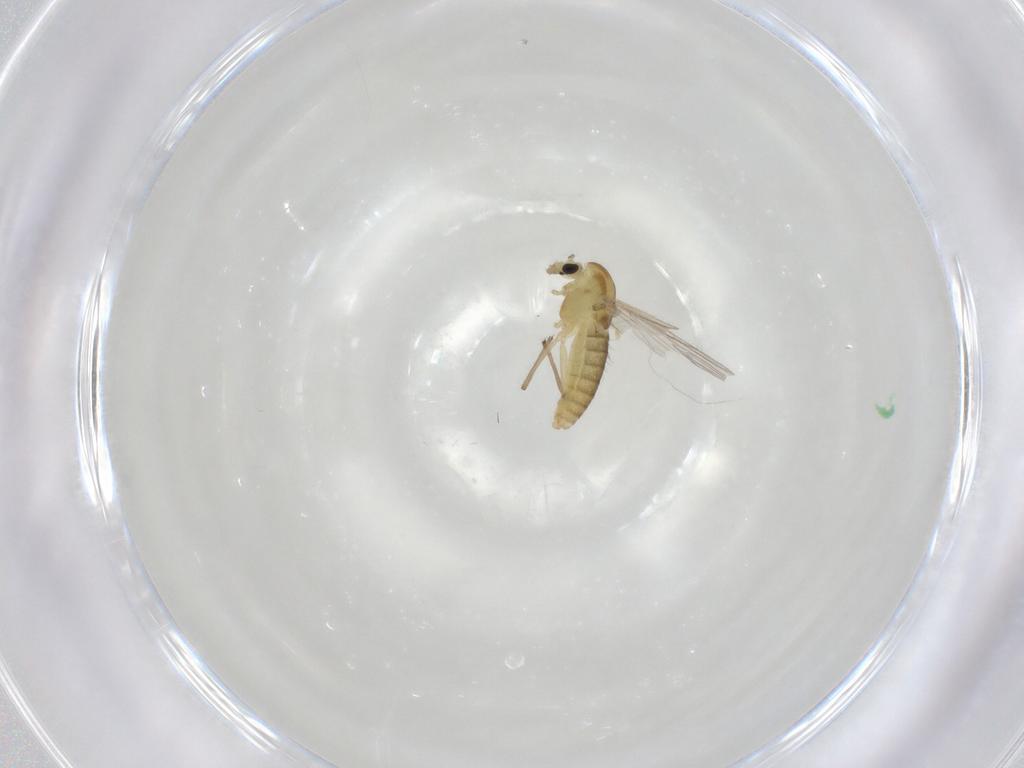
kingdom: Animalia
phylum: Arthropoda
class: Insecta
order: Diptera
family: Chironomidae
